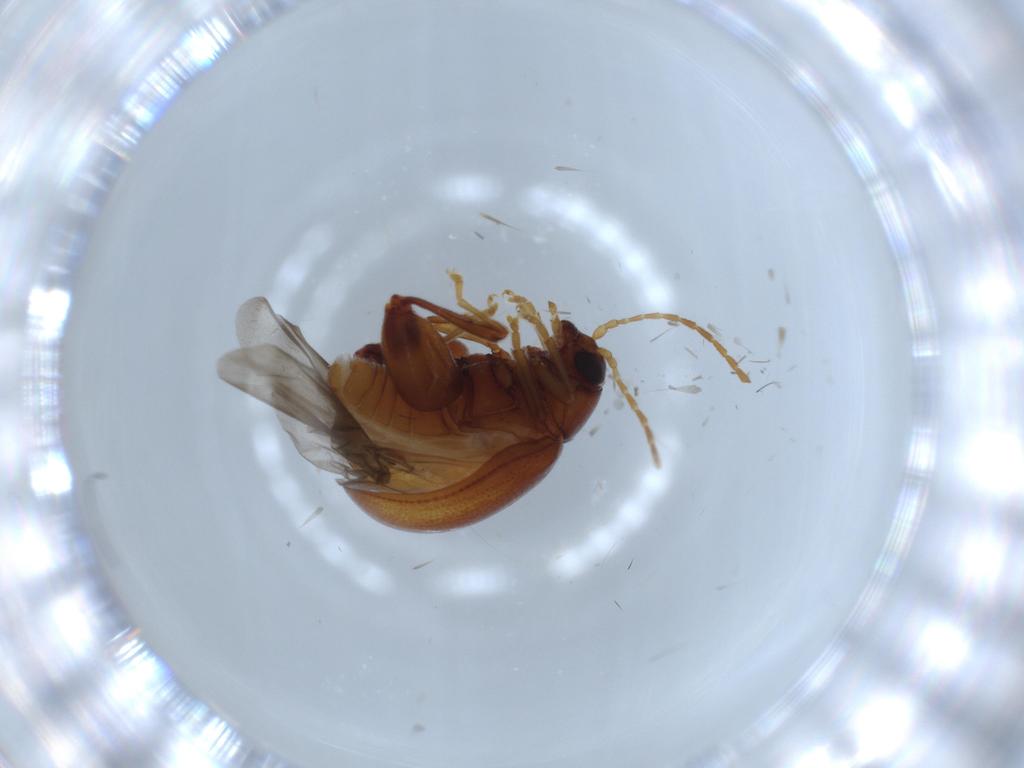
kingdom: Animalia
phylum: Arthropoda
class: Insecta
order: Coleoptera
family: Chrysomelidae
